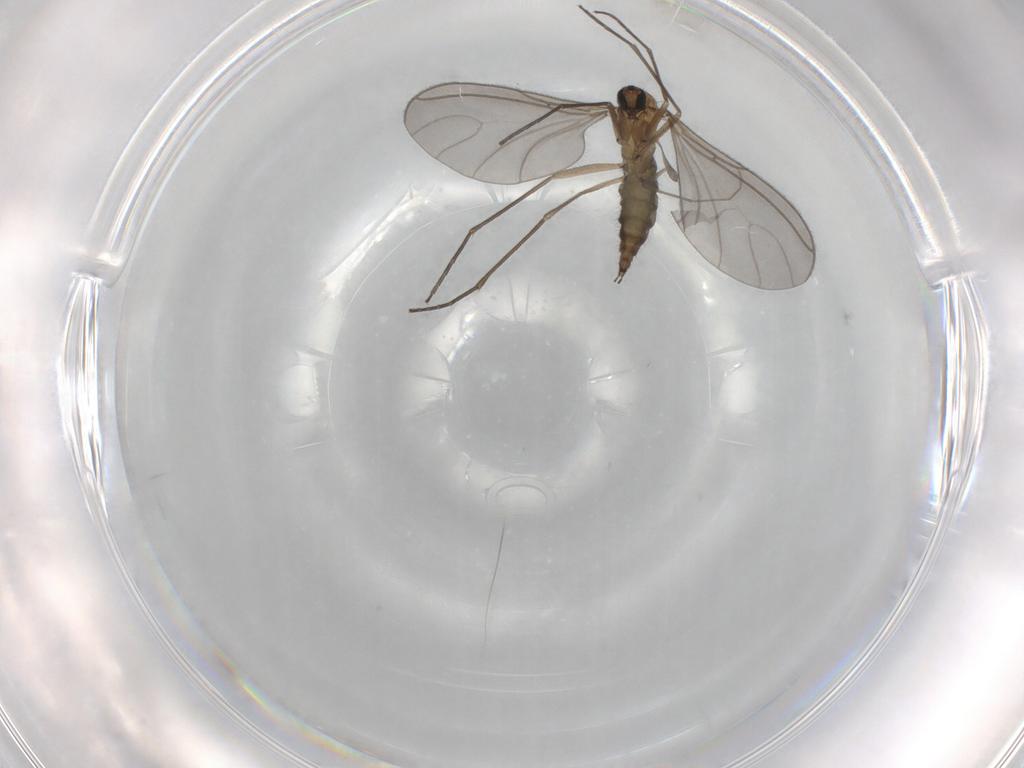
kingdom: Animalia
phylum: Arthropoda
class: Insecta
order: Diptera
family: Sciaridae
